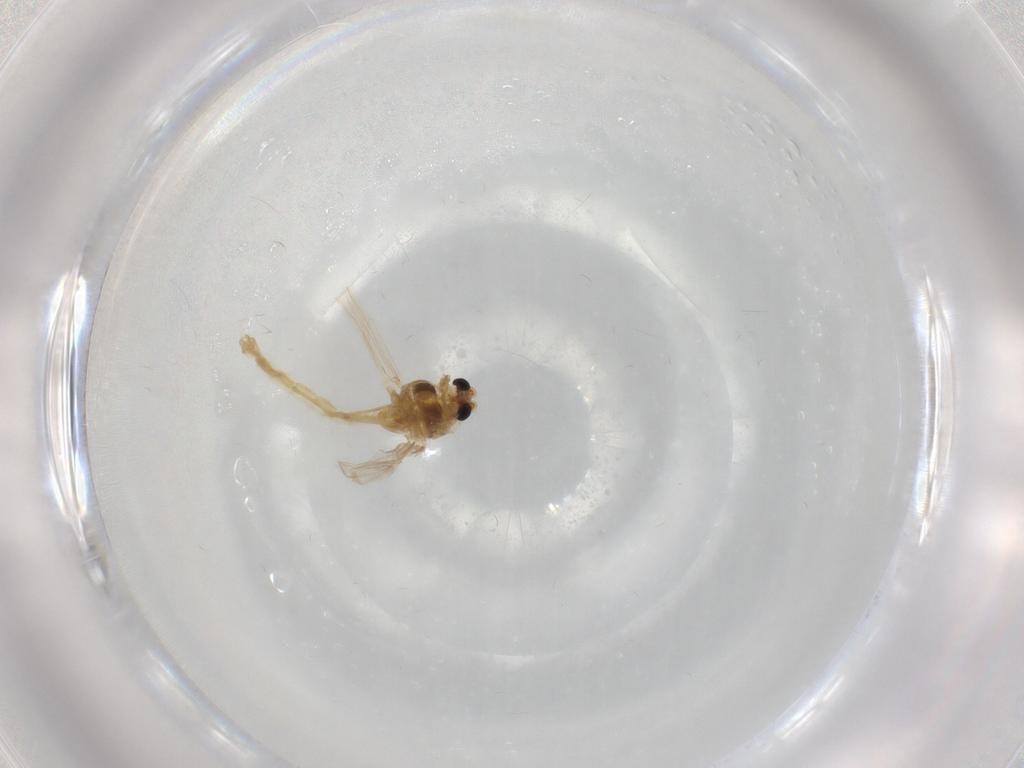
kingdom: Animalia
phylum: Arthropoda
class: Insecta
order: Diptera
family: Chironomidae
